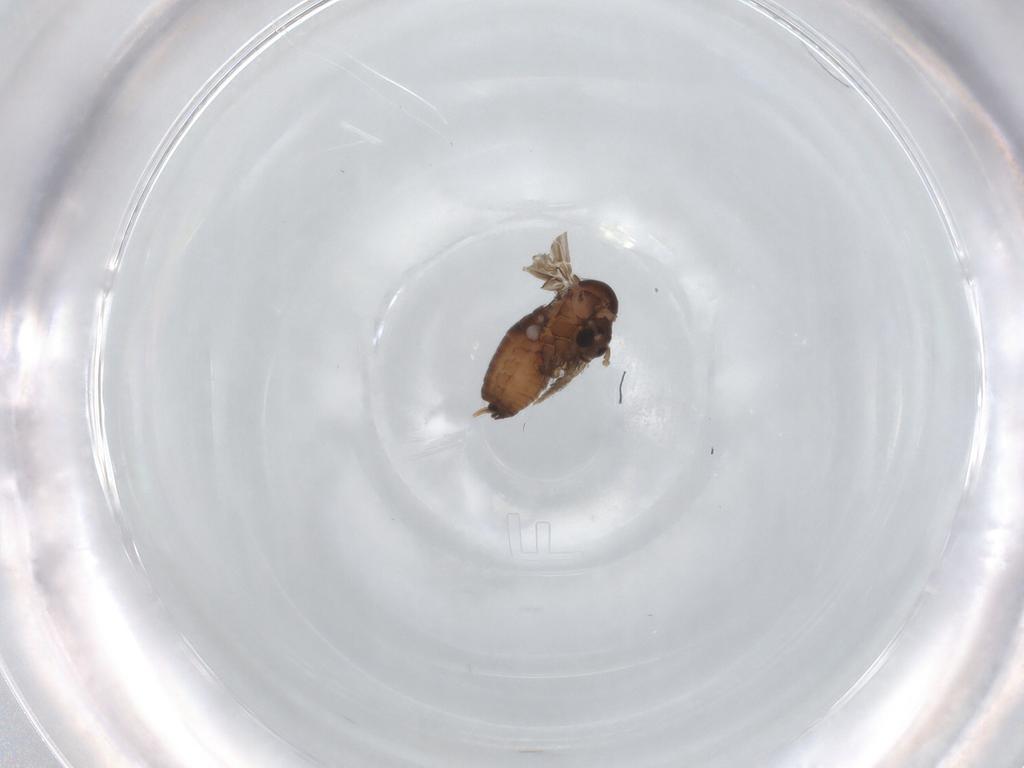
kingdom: Animalia
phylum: Arthropoda
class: Insecta
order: Diptera
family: Psychodidae
